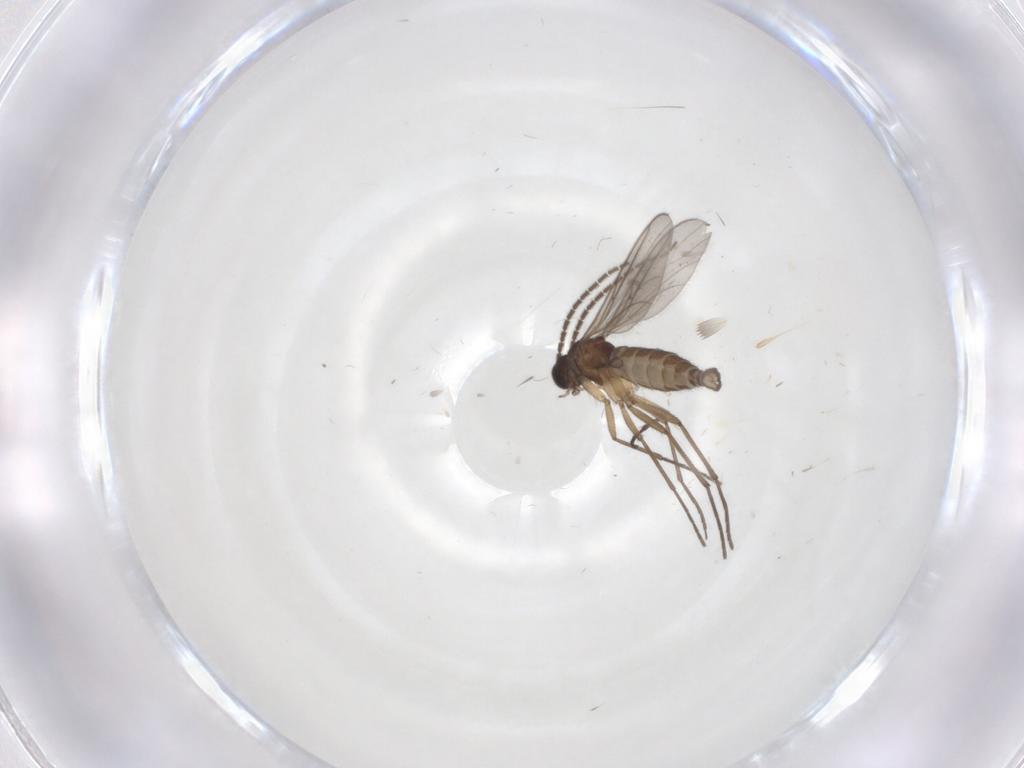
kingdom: Animalia
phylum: Arthropoda
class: Insecta
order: Diptera
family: Sciaridae
